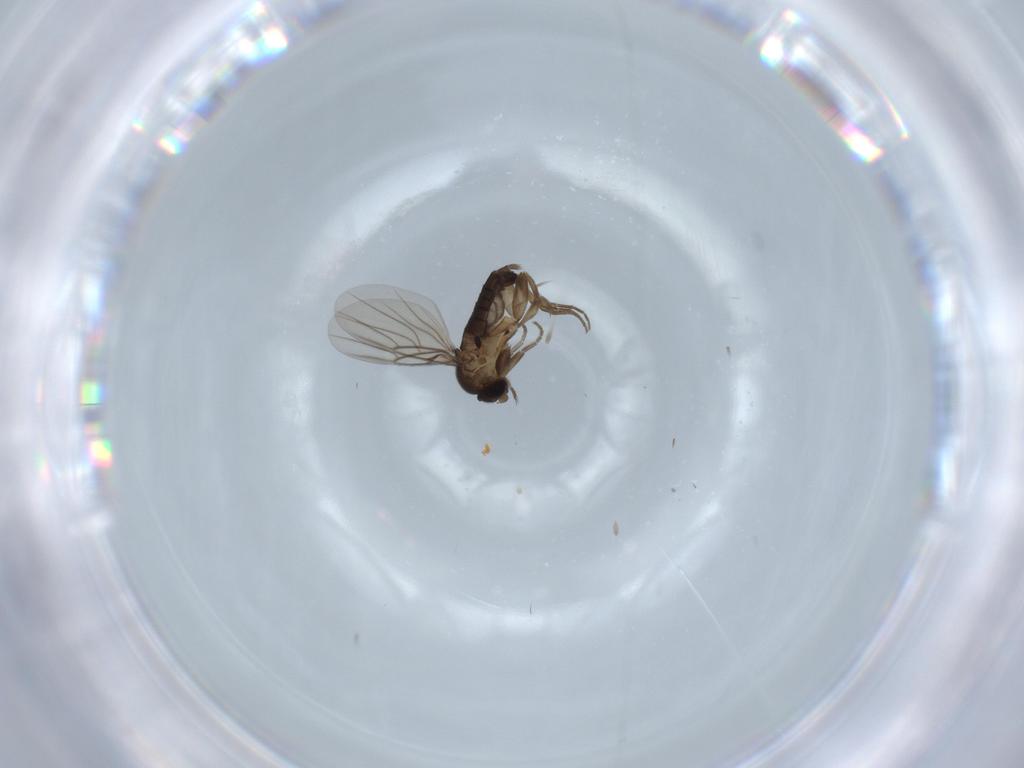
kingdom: Animalia
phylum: Arthropoda
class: Insecta
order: Diptera
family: Phoridae
